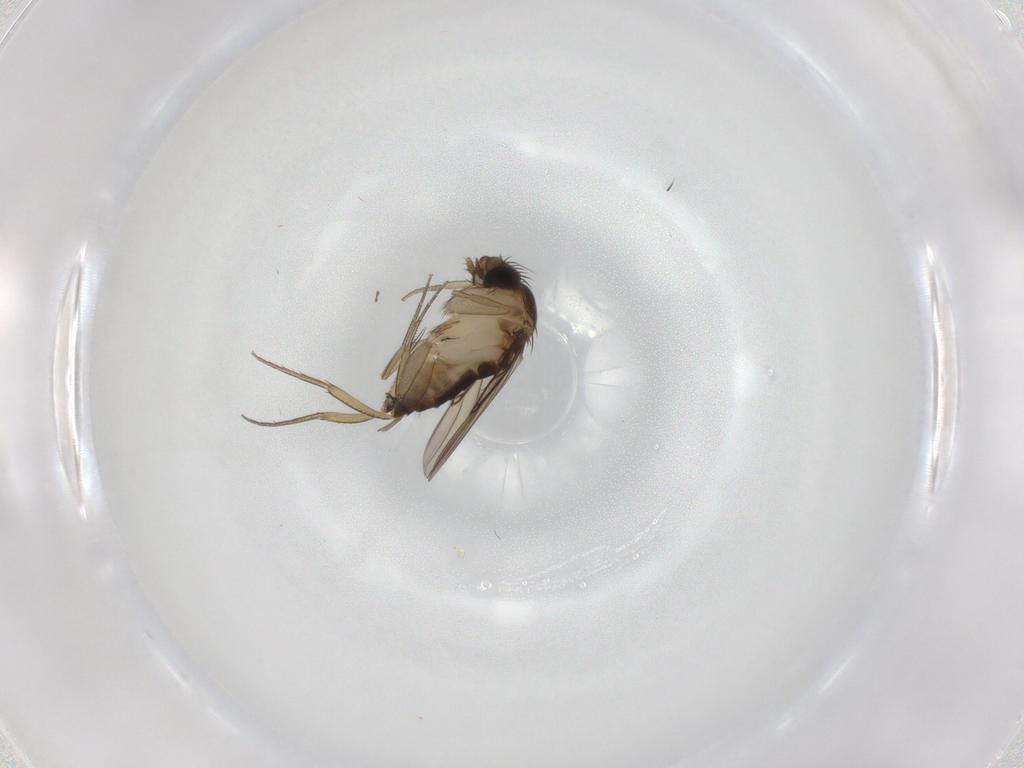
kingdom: Animalia
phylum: Arthropoda
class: Insecta
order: Diptera
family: Phoridae
